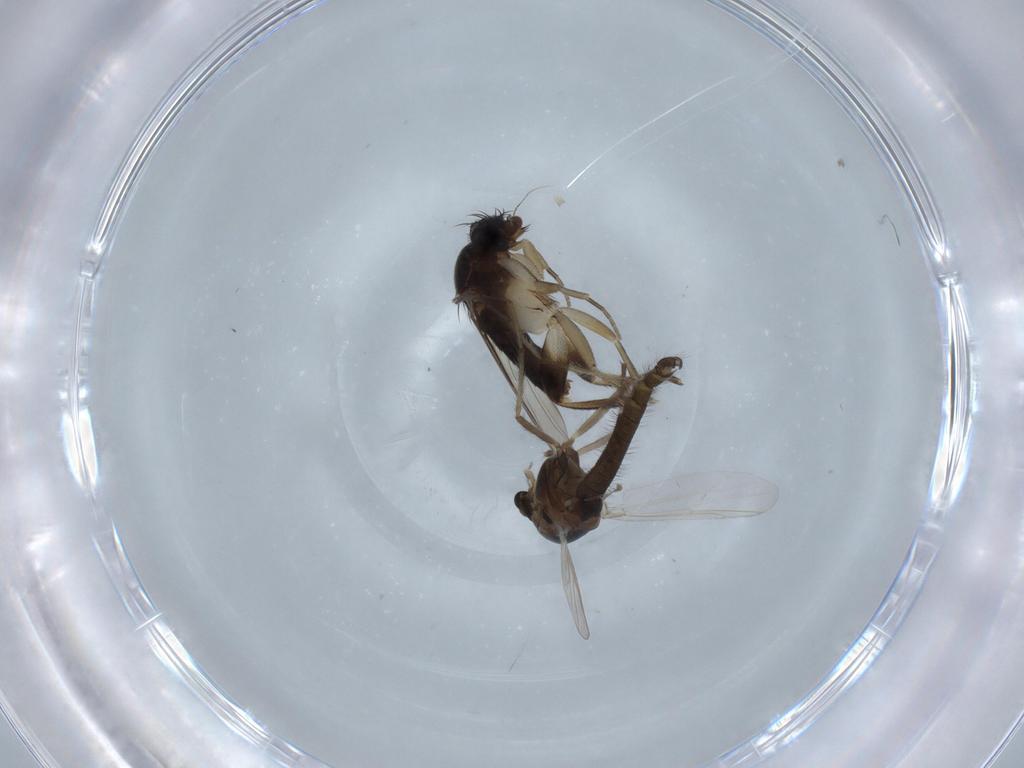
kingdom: Animalia
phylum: Arthropoda
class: Insecta
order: Diptera
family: Chironomidae
